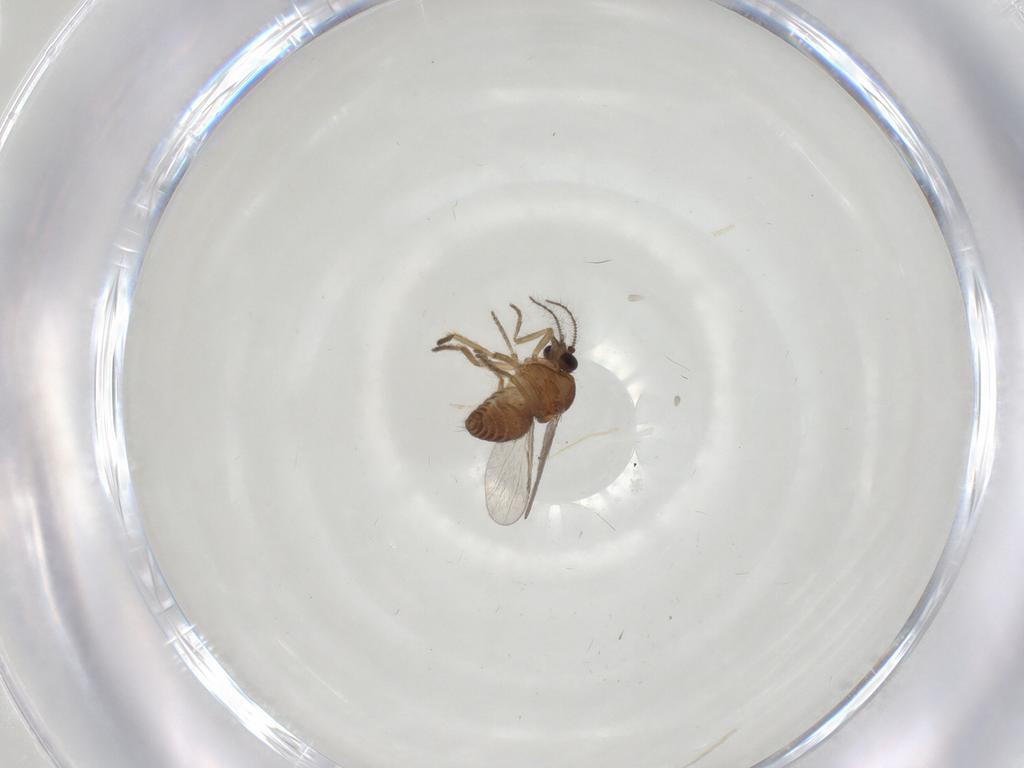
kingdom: Animalia
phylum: Arthropoda
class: Insecta
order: Diptera
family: Ceratopogonidae
